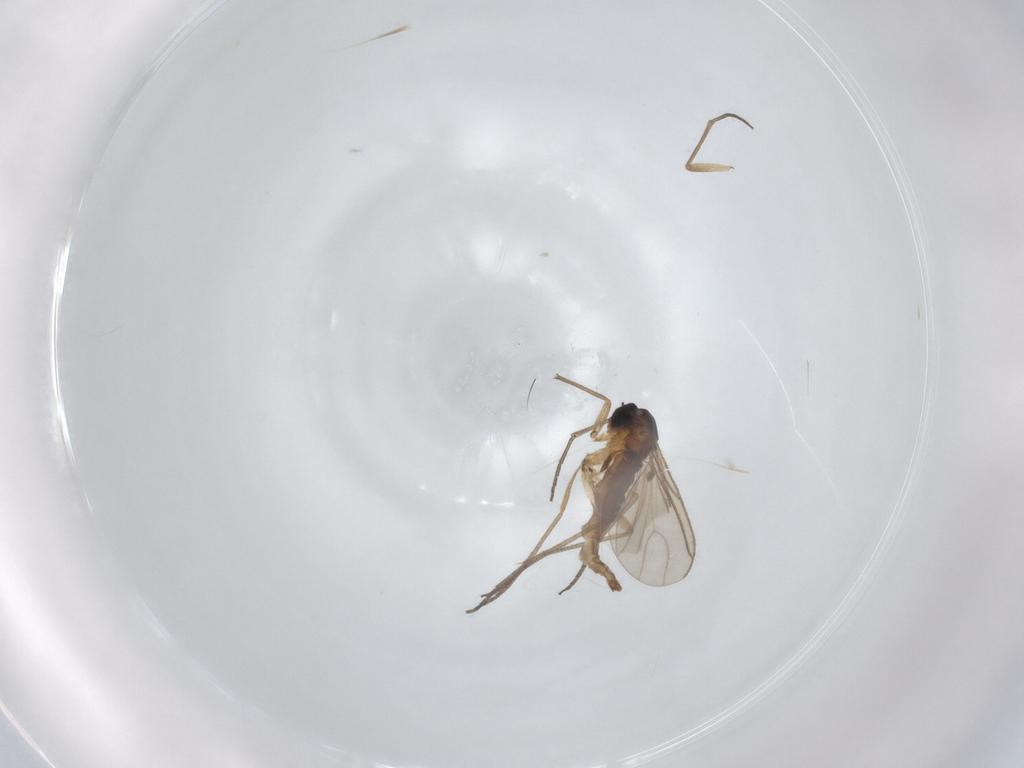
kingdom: Animalia
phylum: Arthropoda
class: Insecta
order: Diptera
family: Sciaridae
